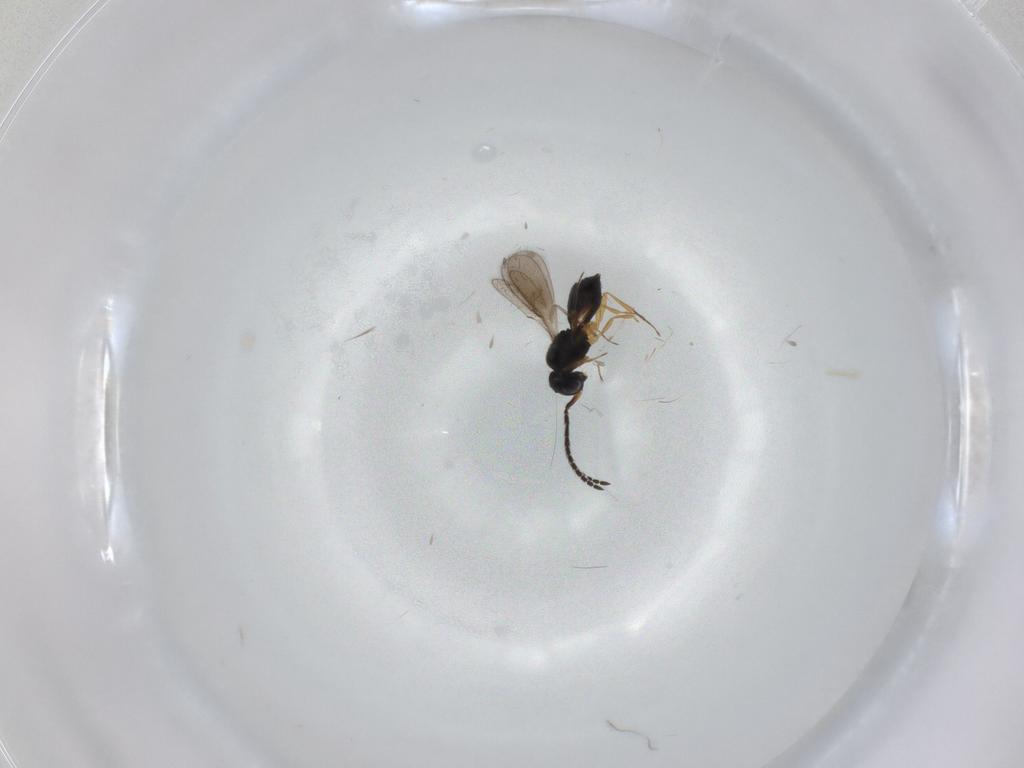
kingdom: Animalia
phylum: Arthropoda
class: Insecta
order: Hymenoptera
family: Scelionidae
